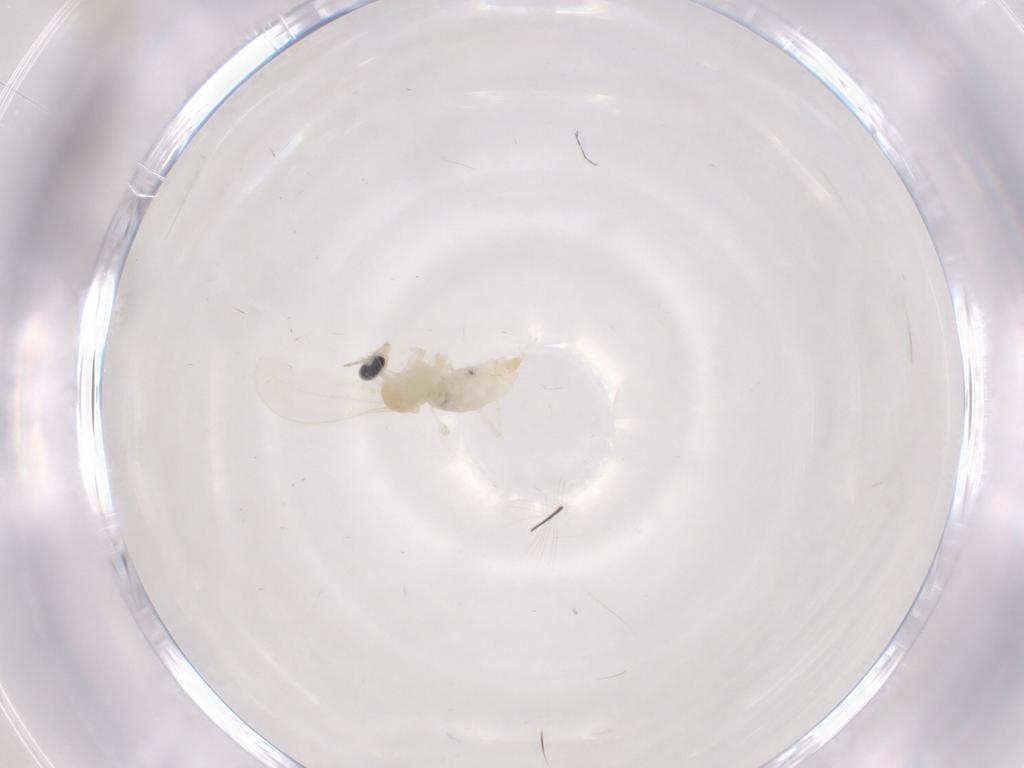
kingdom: Animalia
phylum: Arthropoda
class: Insecta
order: Diptera
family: Cecidomyiidae
